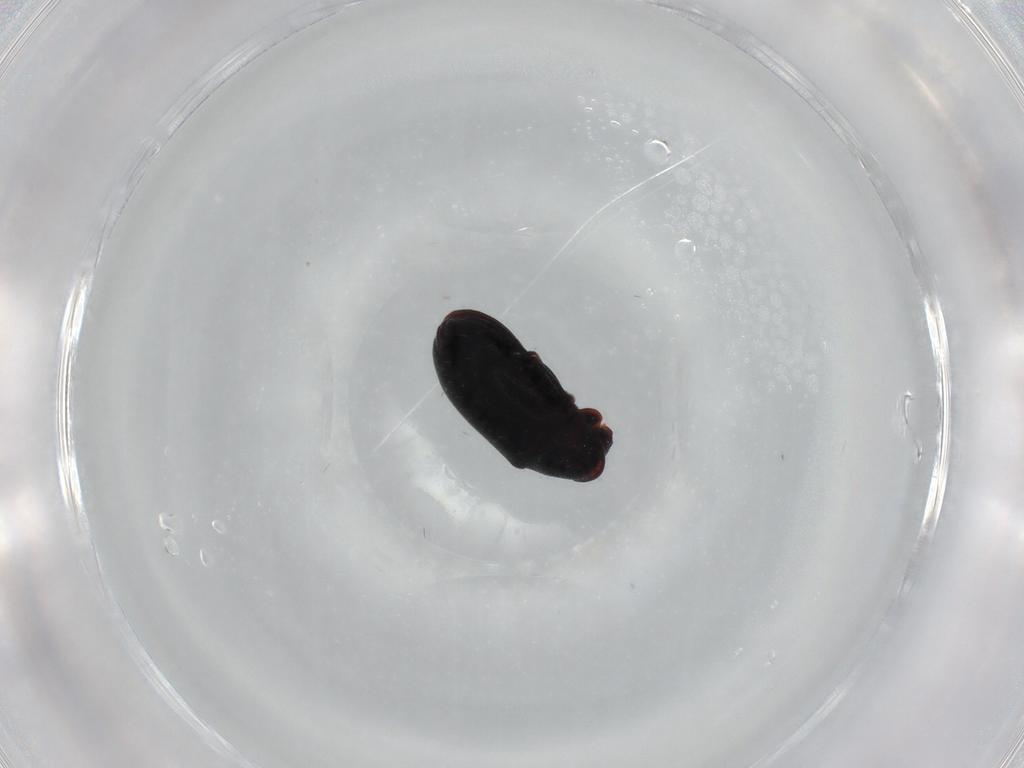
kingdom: Animalia
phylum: Arthropoda
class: Insecta
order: Coleoptera
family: Ptinidae
